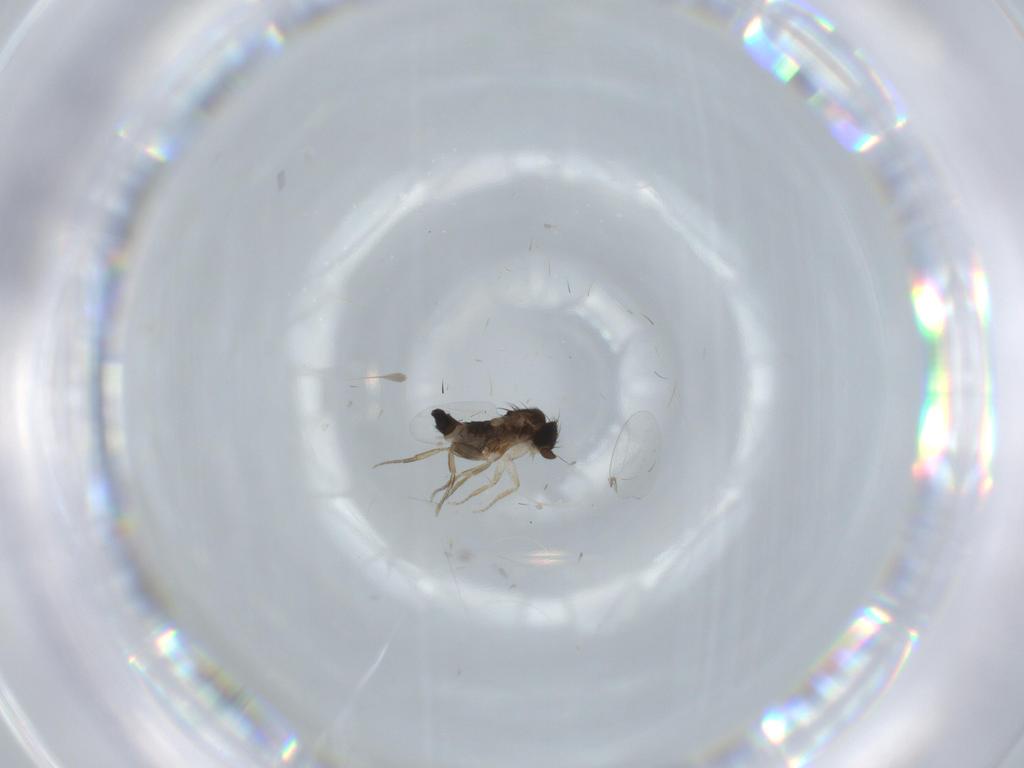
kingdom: Animalia
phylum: Arthropoda
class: Insecta
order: Diptera
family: Phoridae
